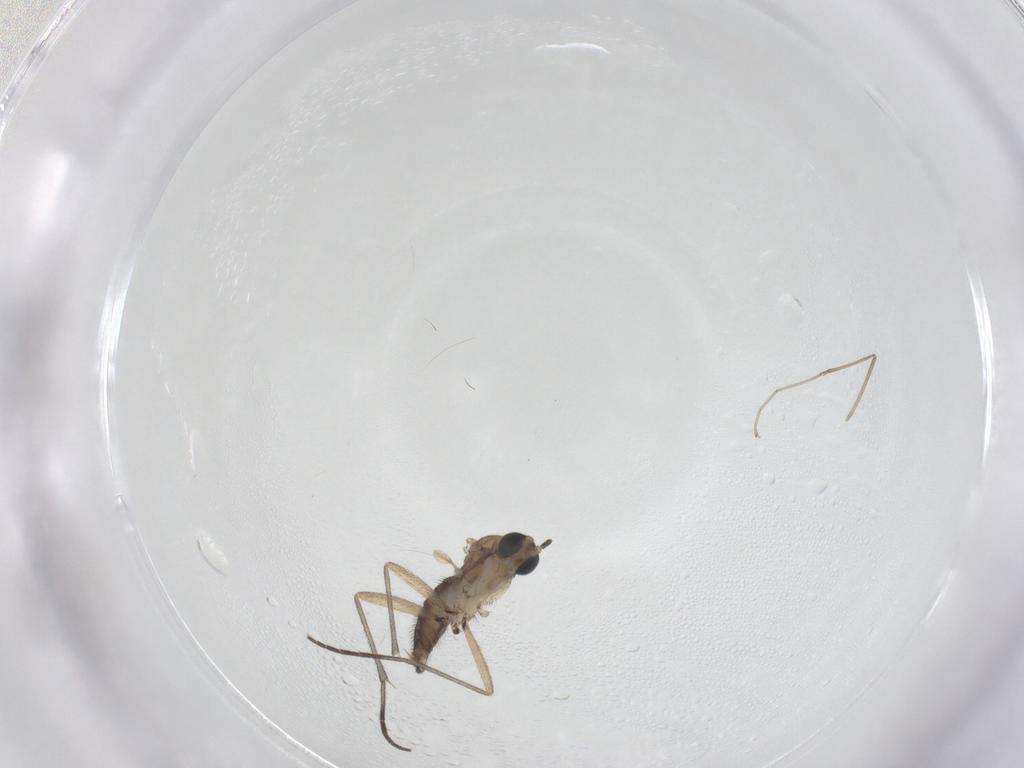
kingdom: Animalia
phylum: Arthropoda
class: Insecta
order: Diptera
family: Sciaridae
